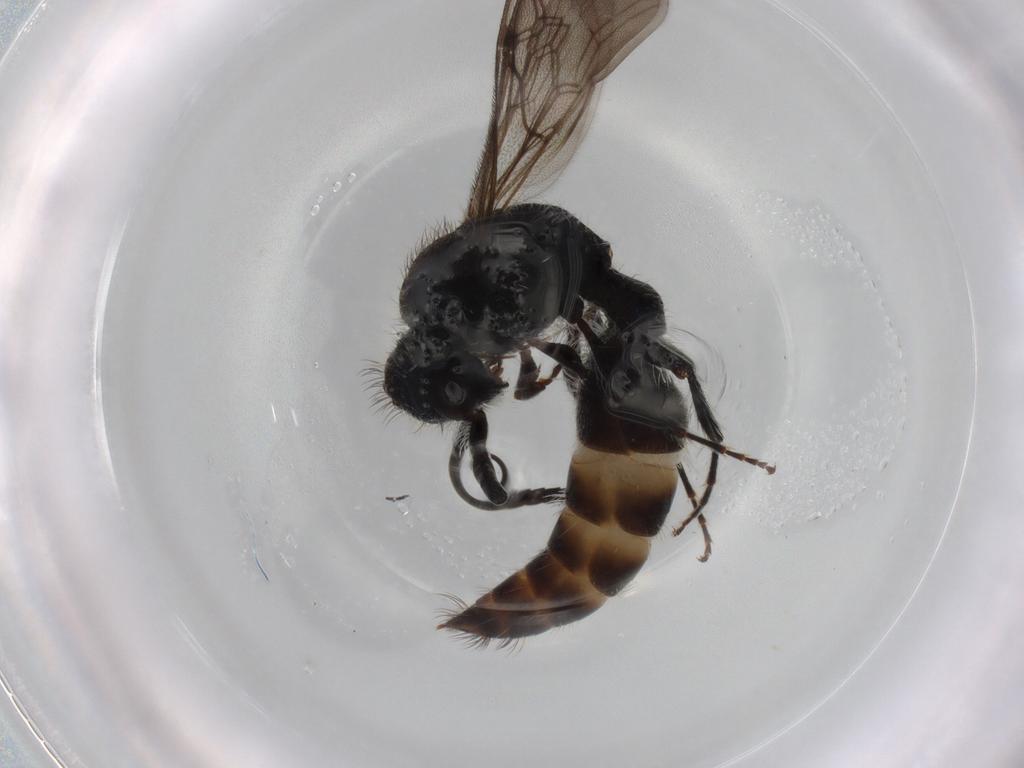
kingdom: Animalia
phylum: Arthropoda
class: Insecta
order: Hymenoptera
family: Mutillidae
